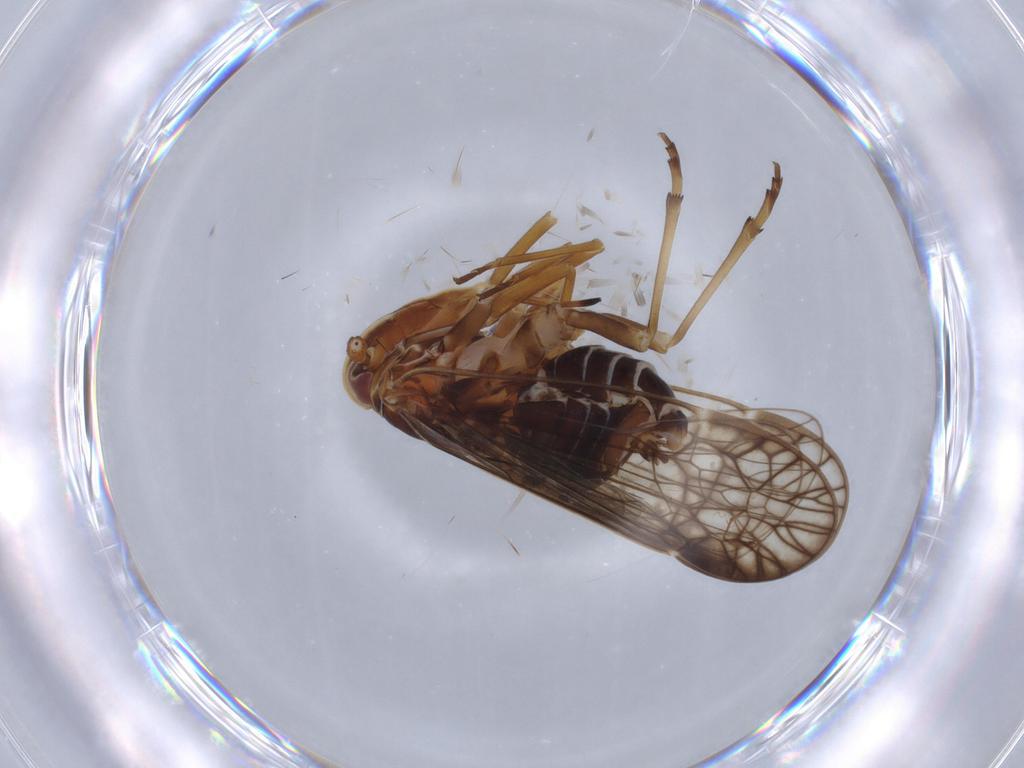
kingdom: Animalia
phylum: Arthropoda
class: Insecta
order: Hemiptera
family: Kinnaridae
